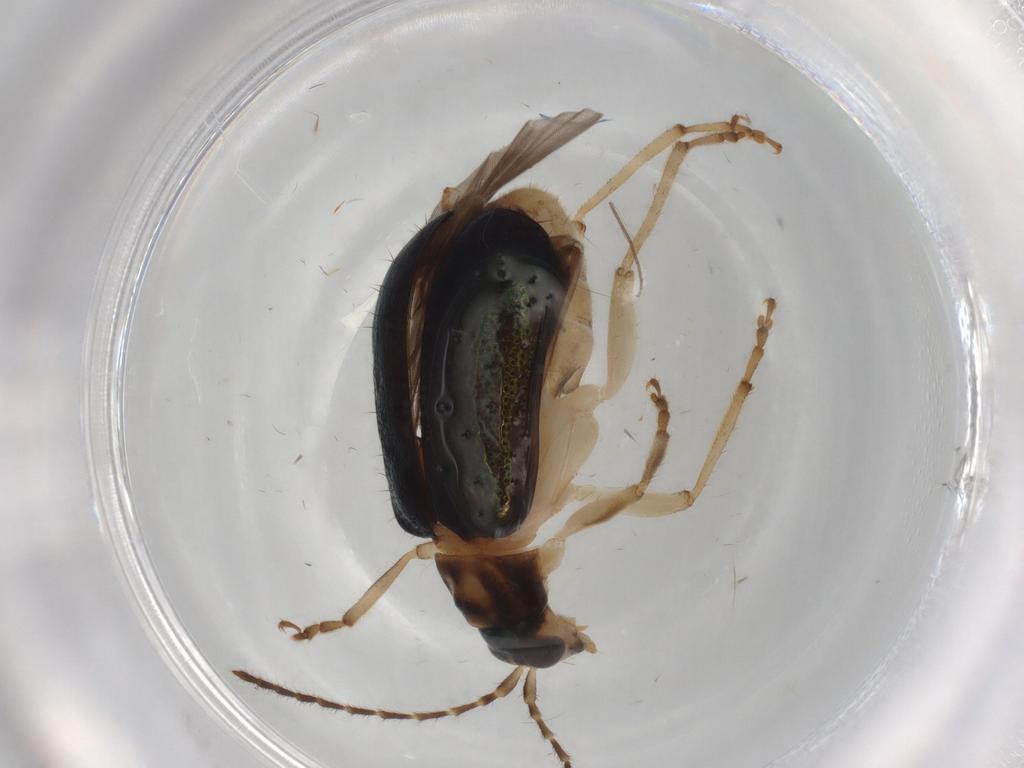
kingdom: Animalia
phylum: Arthropoda
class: Insecta
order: Coleoptera
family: Chrysomelidae
